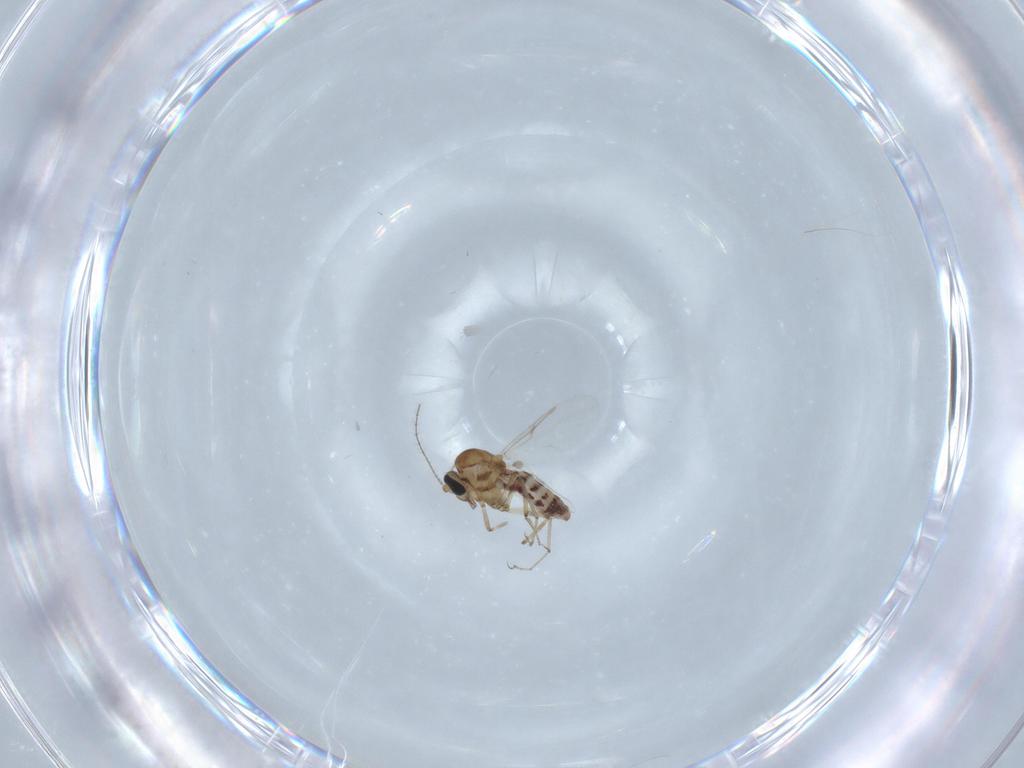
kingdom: Animalia
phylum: Arthropoda
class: Insecta
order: Diptera
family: Ceratopogonidae
